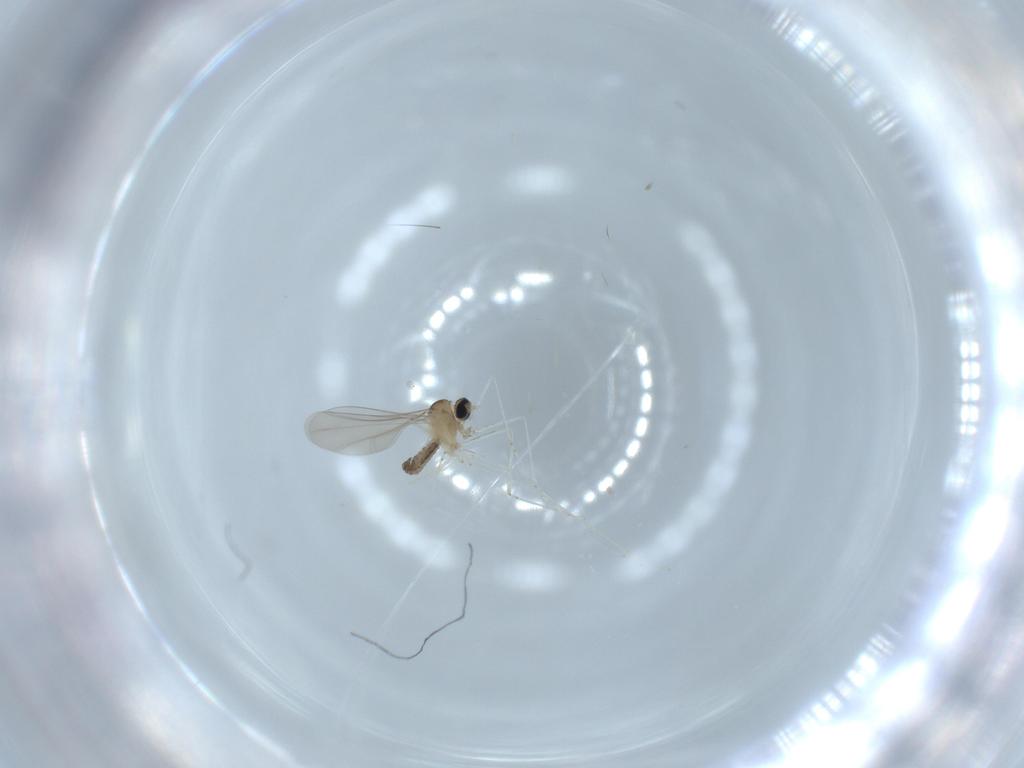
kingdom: Animalia
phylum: Arthropoda
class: Insecta
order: Diptera
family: Cecidomyiidae
